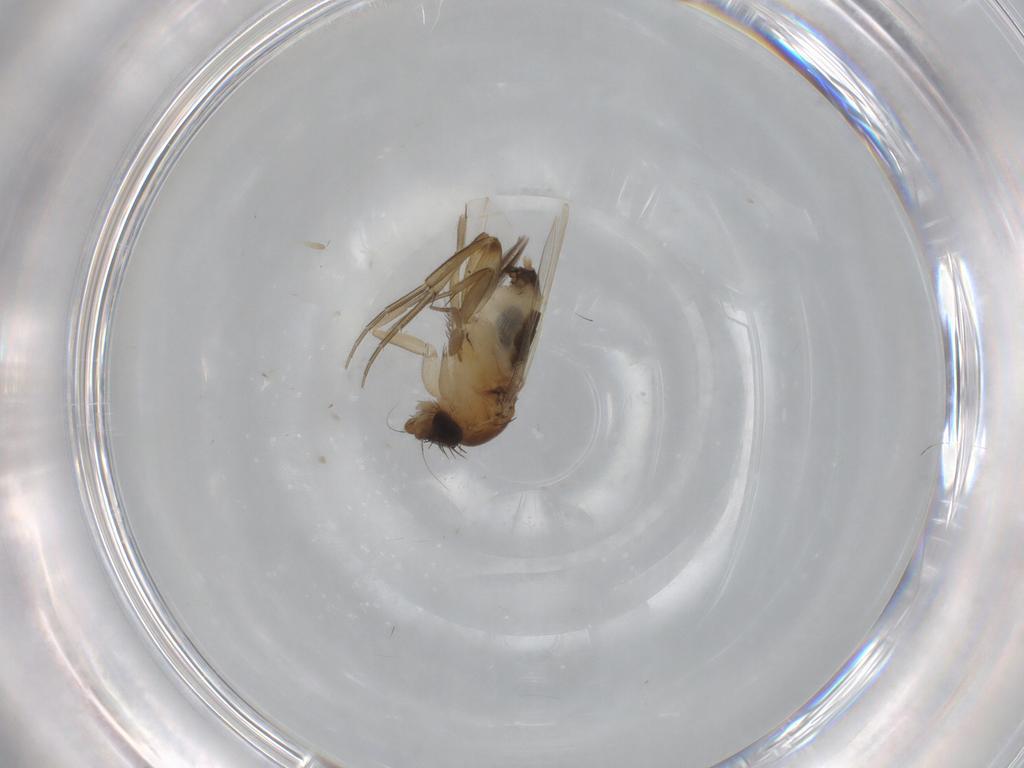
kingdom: Animalia
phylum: Arthropoda
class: Insecta
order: Diptera
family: Phoridae
